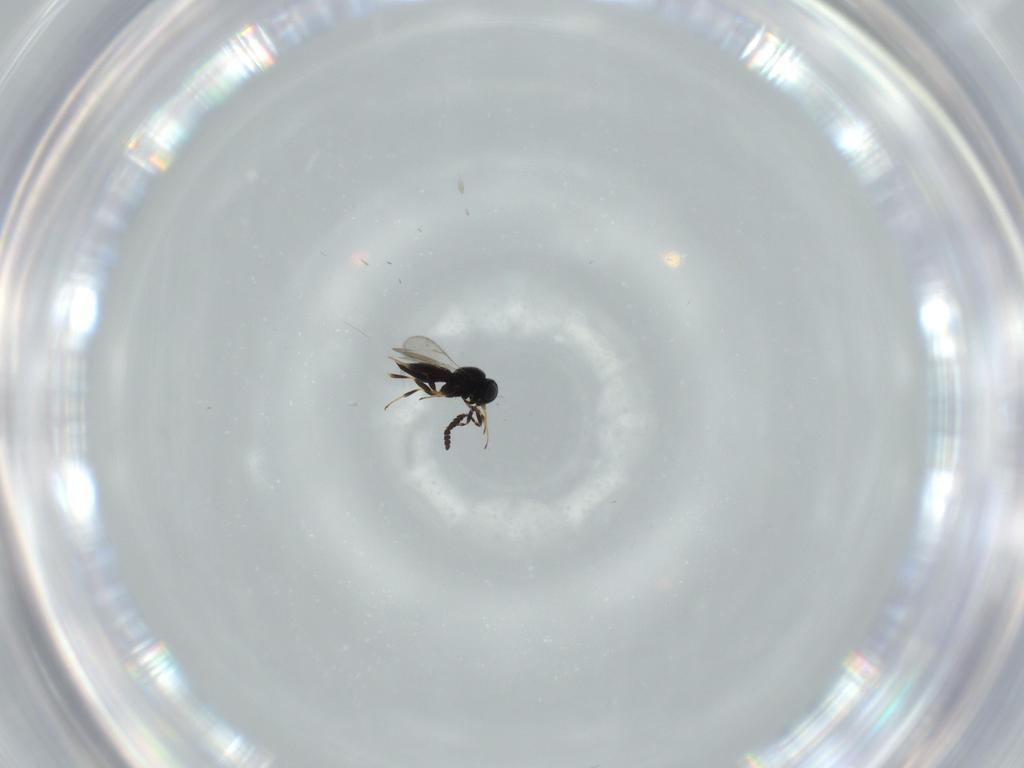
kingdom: Animalia
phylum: Arthropoda
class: Insecta
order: Hymenoptera
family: Scelionidae
